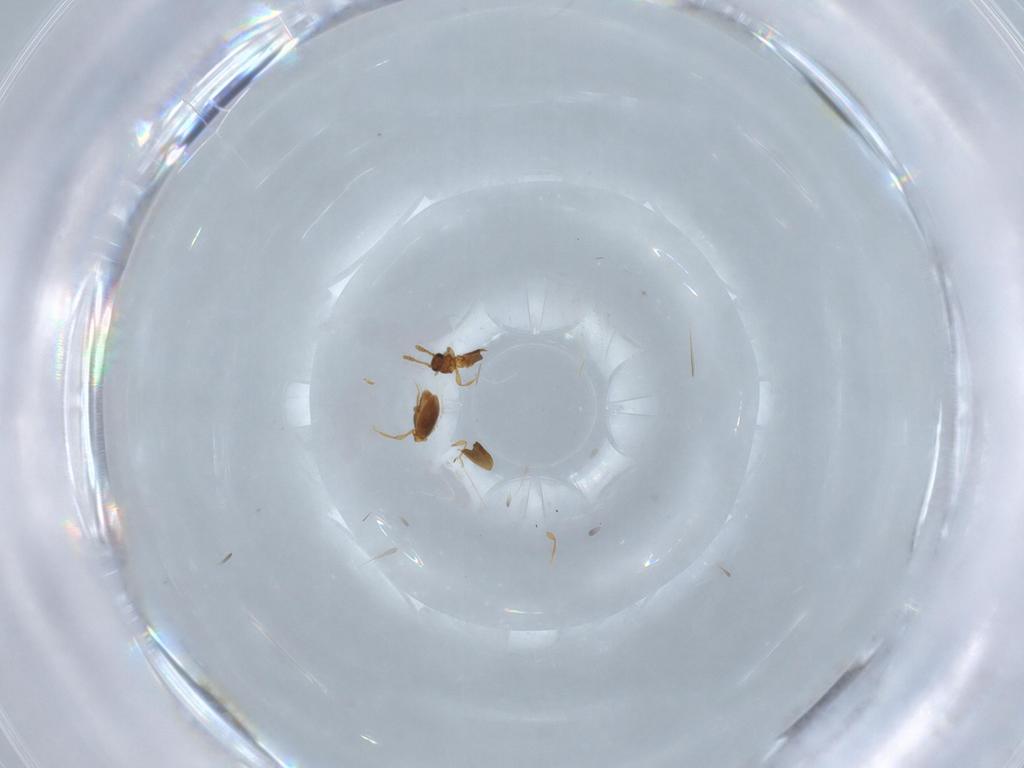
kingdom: Animalia
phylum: Arthropoda
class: Insecta
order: Coleoptera
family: Staphylinidae
